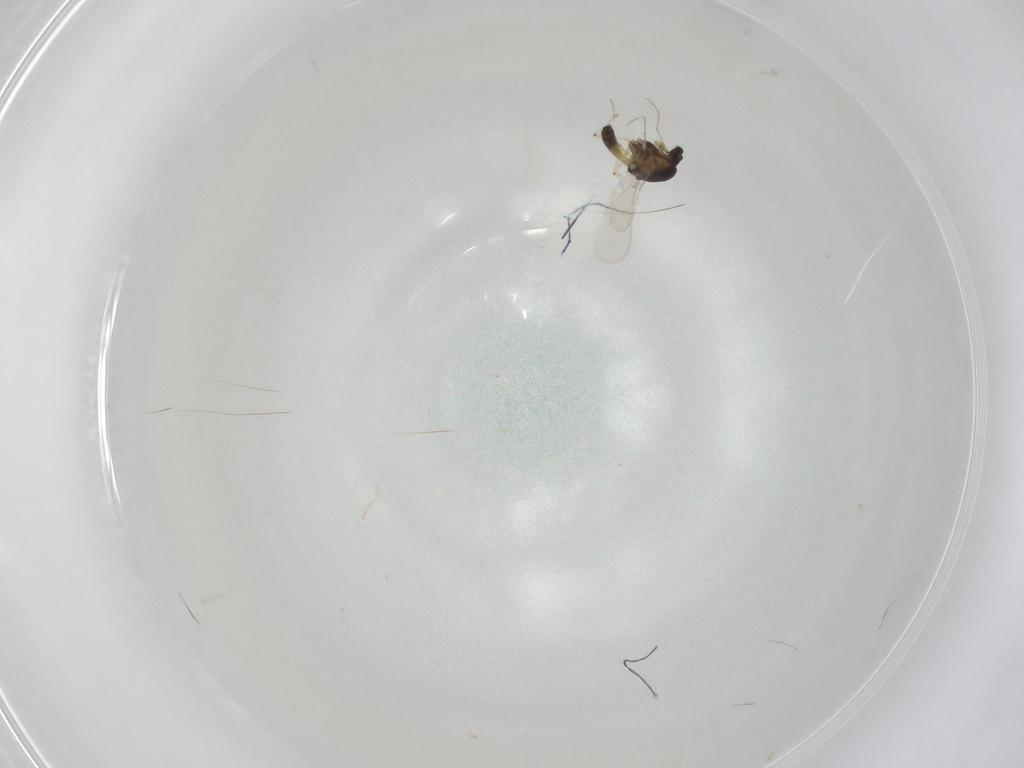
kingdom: Animalia
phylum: Arthropoda
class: Insecta
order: Diptera
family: Chironomidae
